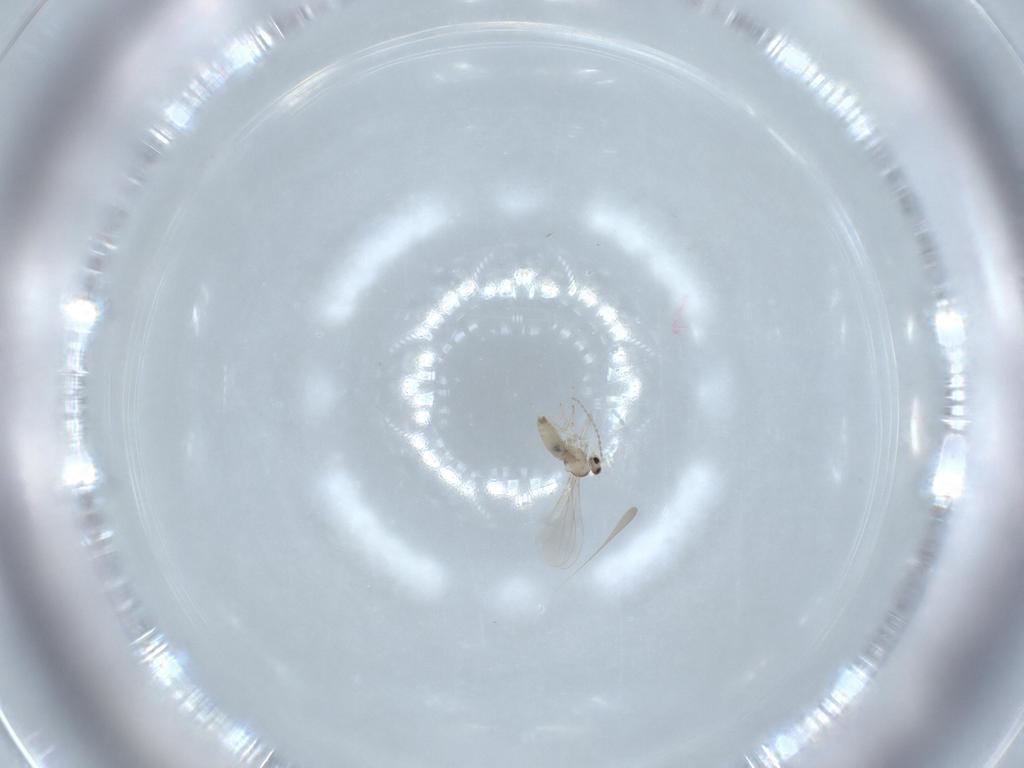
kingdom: Animalia
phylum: Arthropoda
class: Insecta
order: Diptera
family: Cecidomyiidae
